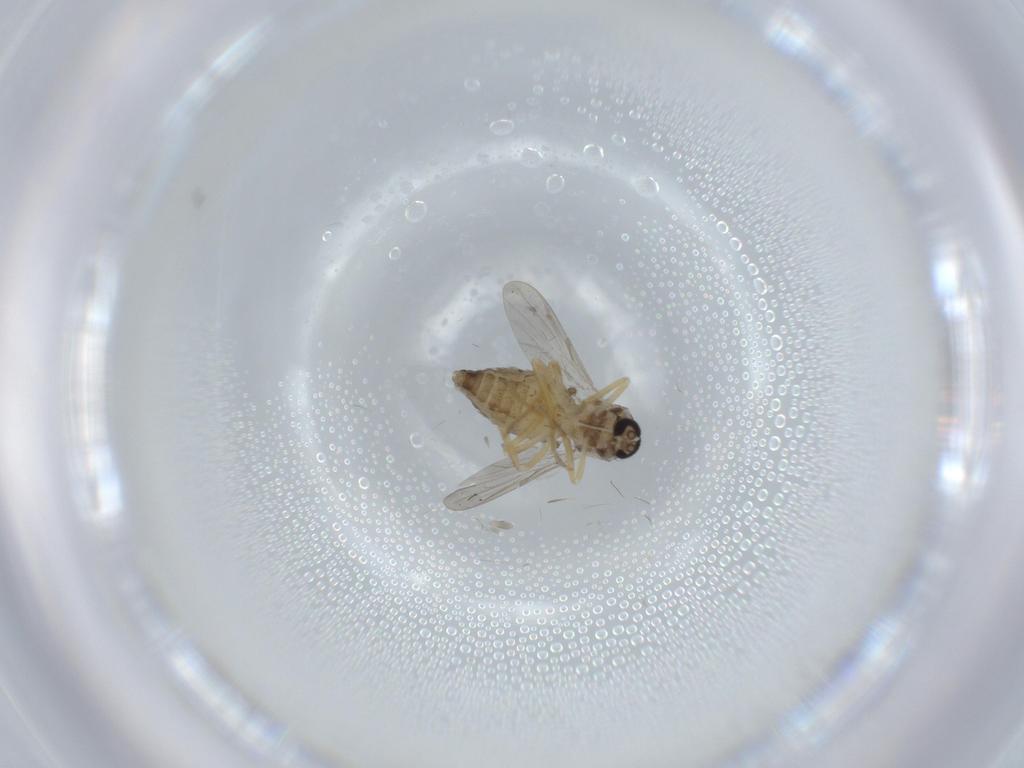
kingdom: Animalia
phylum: Arthropoda
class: Insecta
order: Diptera
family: Ceratopogonidae
